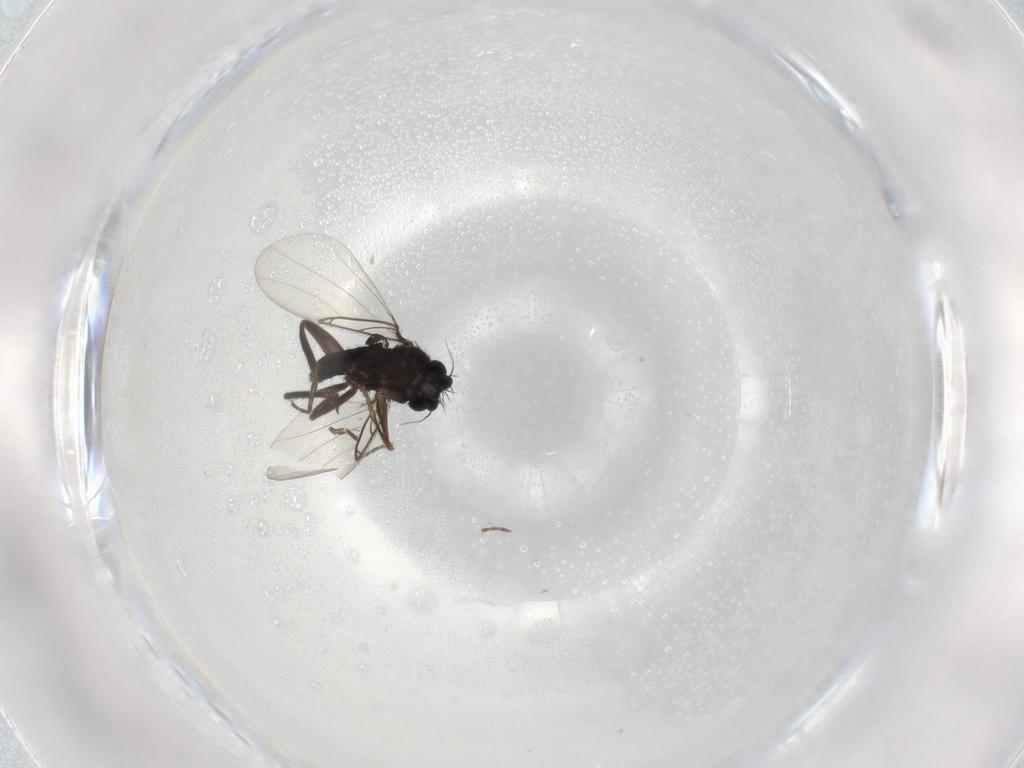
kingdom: Animalia
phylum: Arthropoda
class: Insecta
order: Diptera
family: Phoridae
